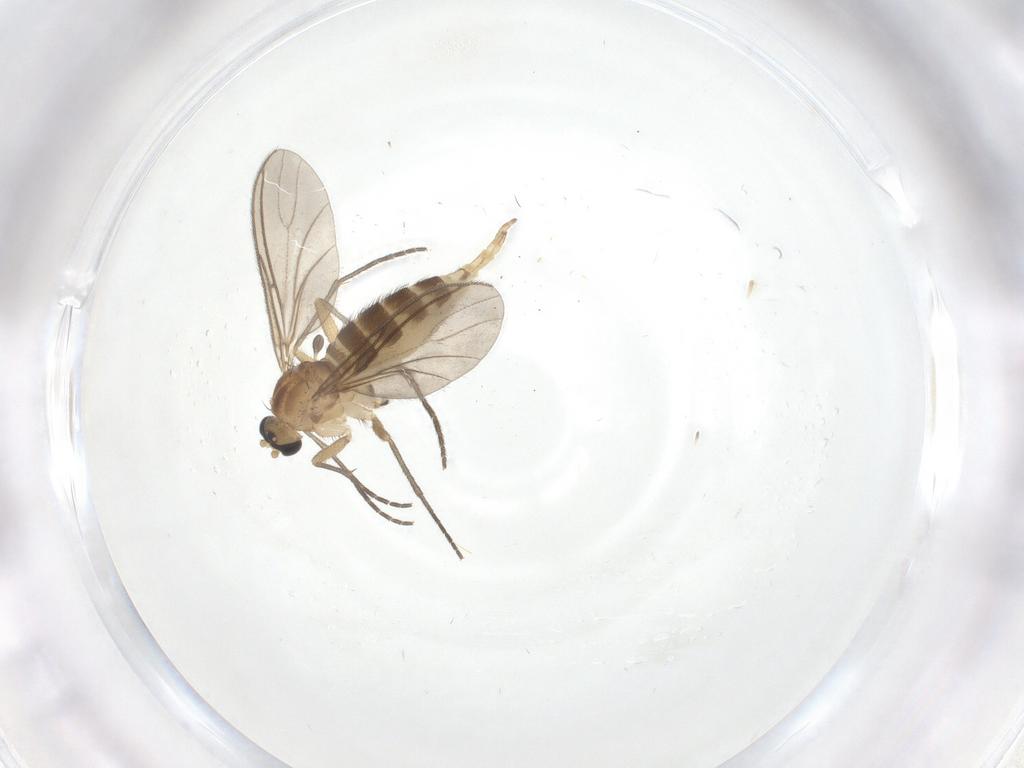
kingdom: Animalia
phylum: Arthropoda
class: Insecta
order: Diptera
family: Sciaridae
